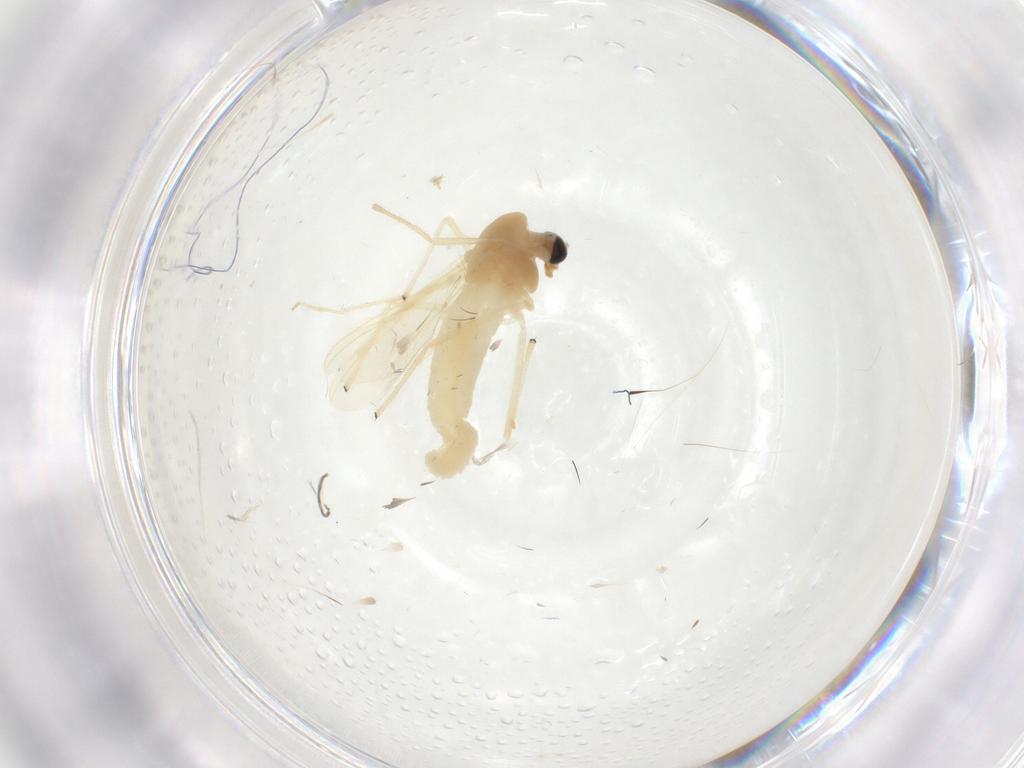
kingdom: Animalia
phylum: Arthropoda
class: Insecta
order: Diptera
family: Chironomidae
